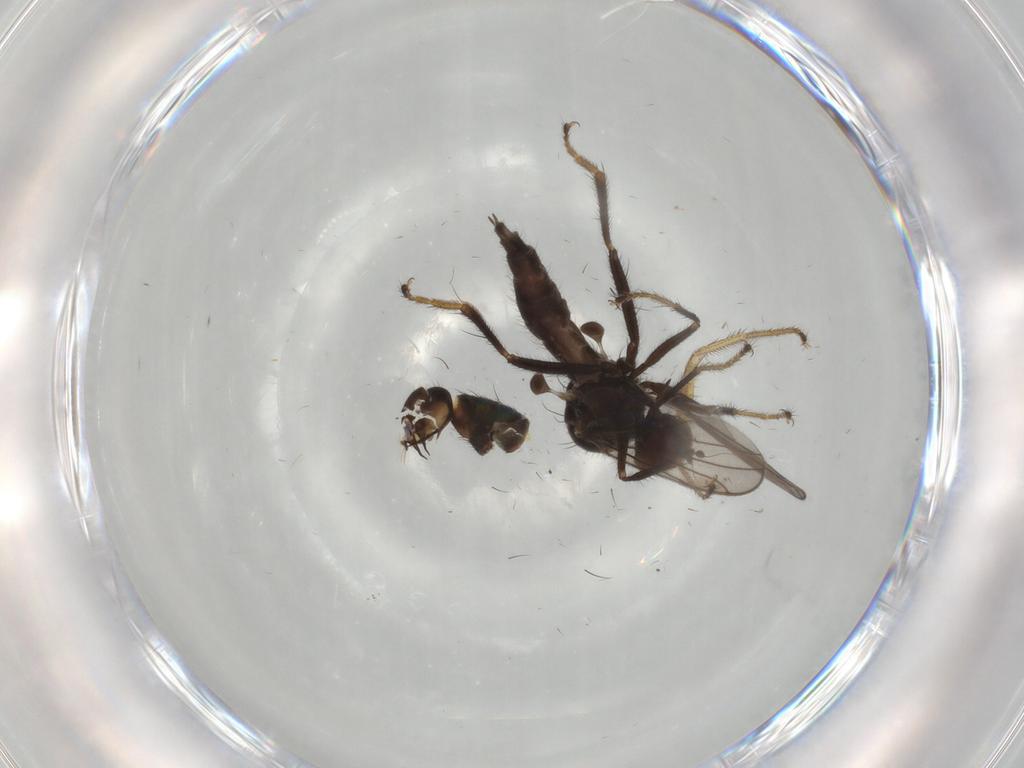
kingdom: Animalia
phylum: Arthropoda
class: Insecta
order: Diptera
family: Hybotidae
